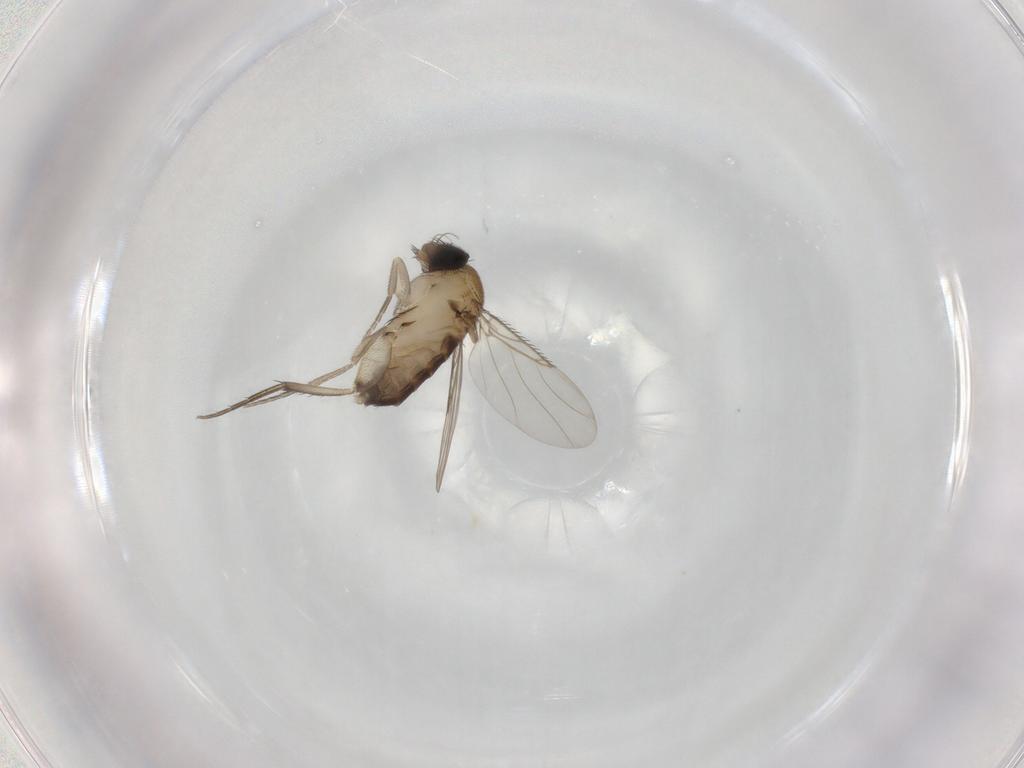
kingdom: Animalia
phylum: Arthropoda
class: Insecta
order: Diptera
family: Phoridae
